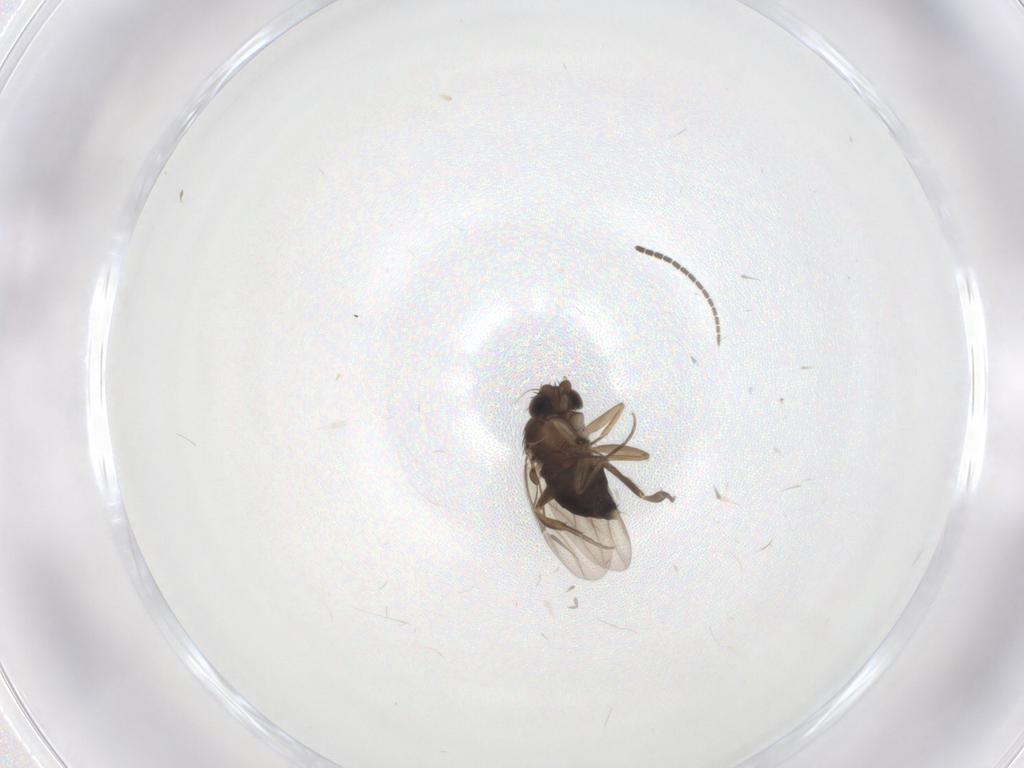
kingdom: Animalia
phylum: Arthropoda
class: Insecta
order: Diptera
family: Phoridae
